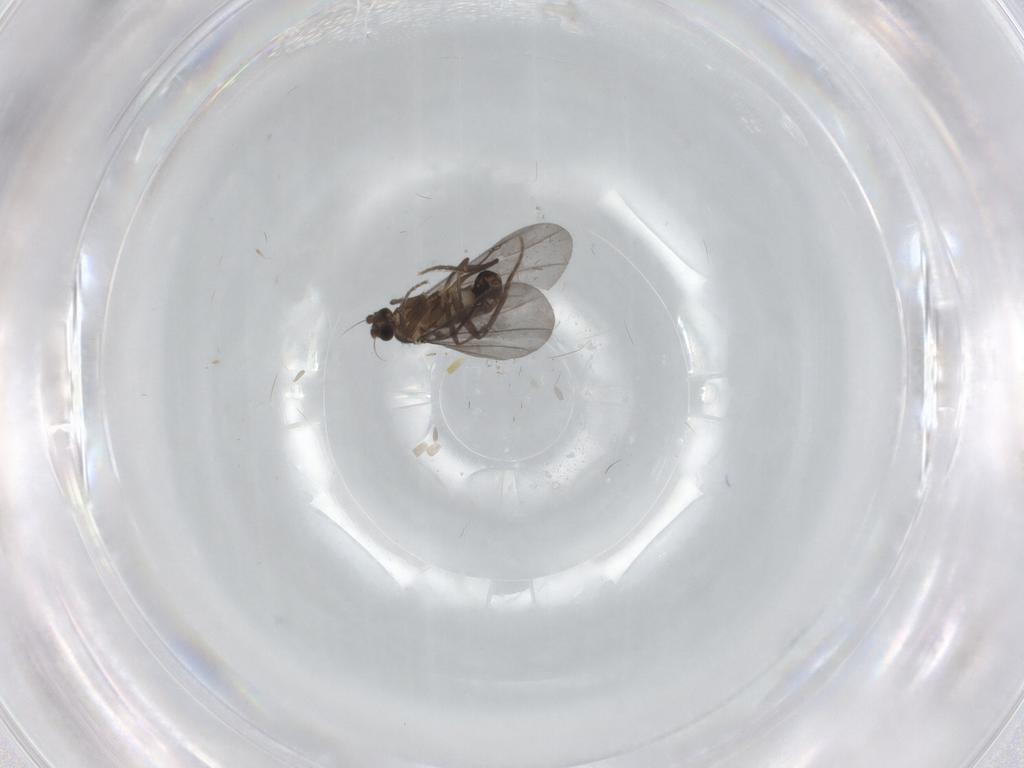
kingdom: Animalia
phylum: Arthropoda
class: Insecta
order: Diptera
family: Phoridae
